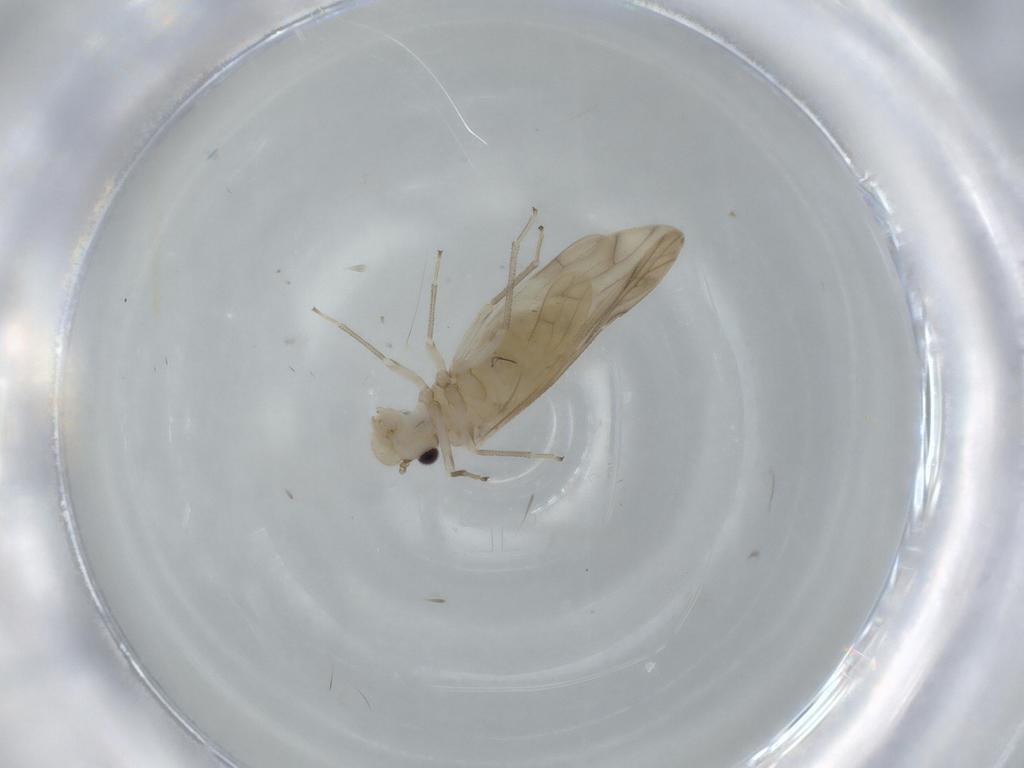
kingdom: Animalia
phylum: Arthropoda
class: Insecta
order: Psocodea
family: Caeciliusidae
